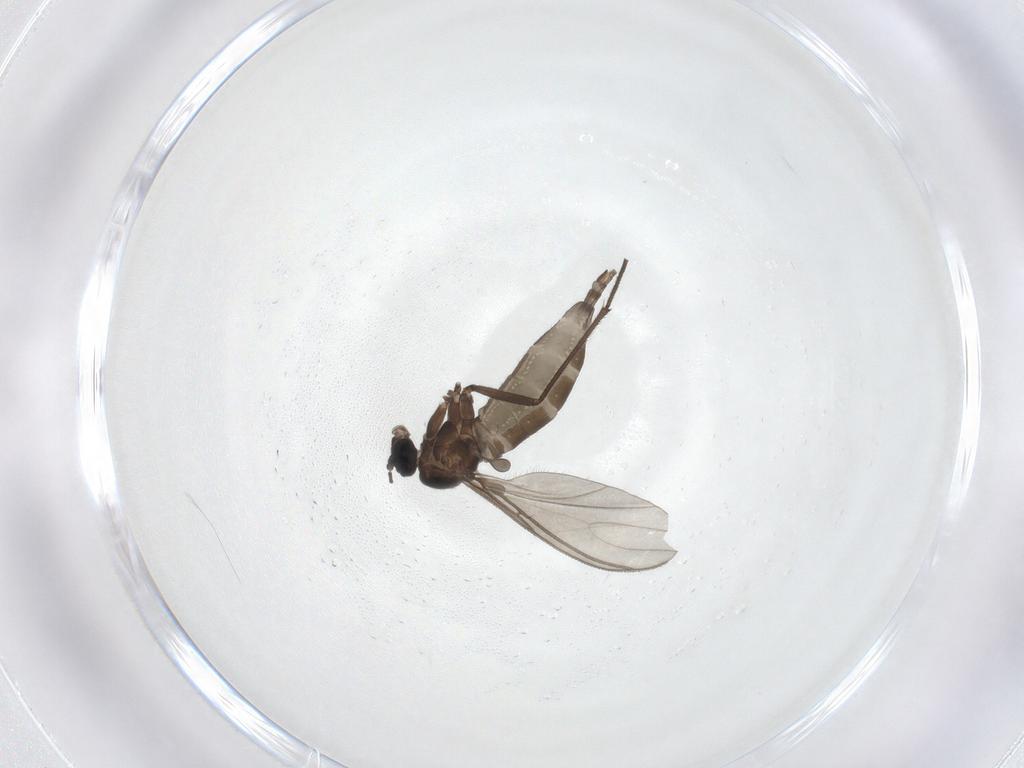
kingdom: Animalia
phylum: Arthropoda
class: Insecta
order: Diptera
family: Sciaridae
